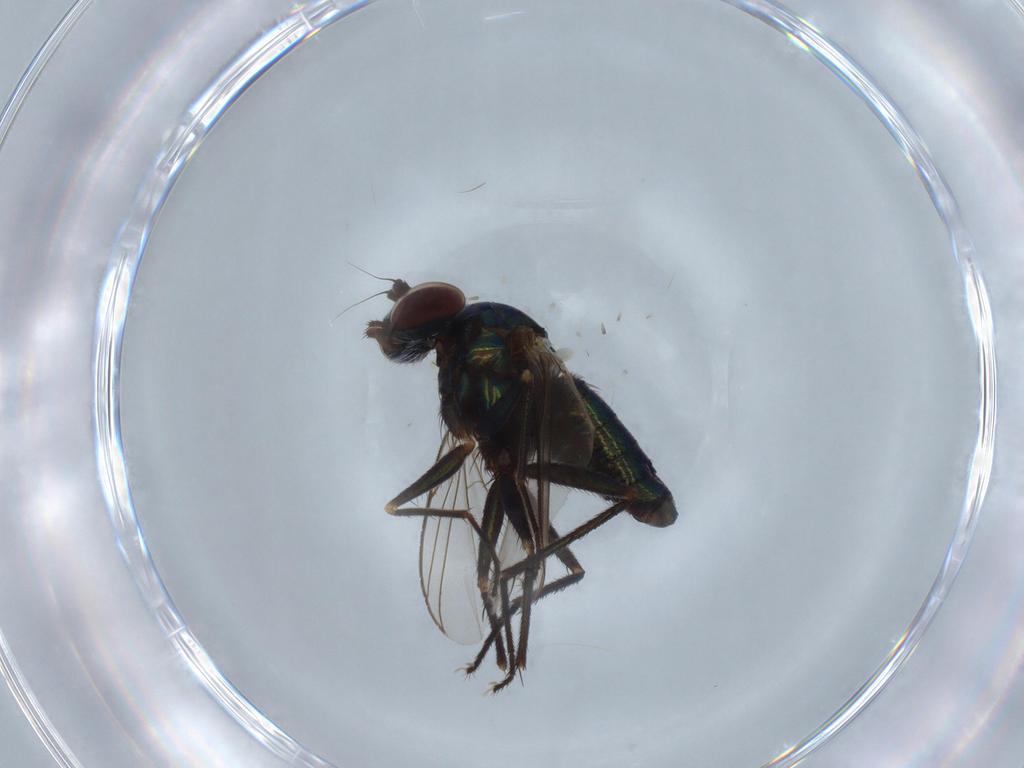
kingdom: Animalia
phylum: Arthropoda
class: Insecta
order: Diptera
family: Dolichopodidae
